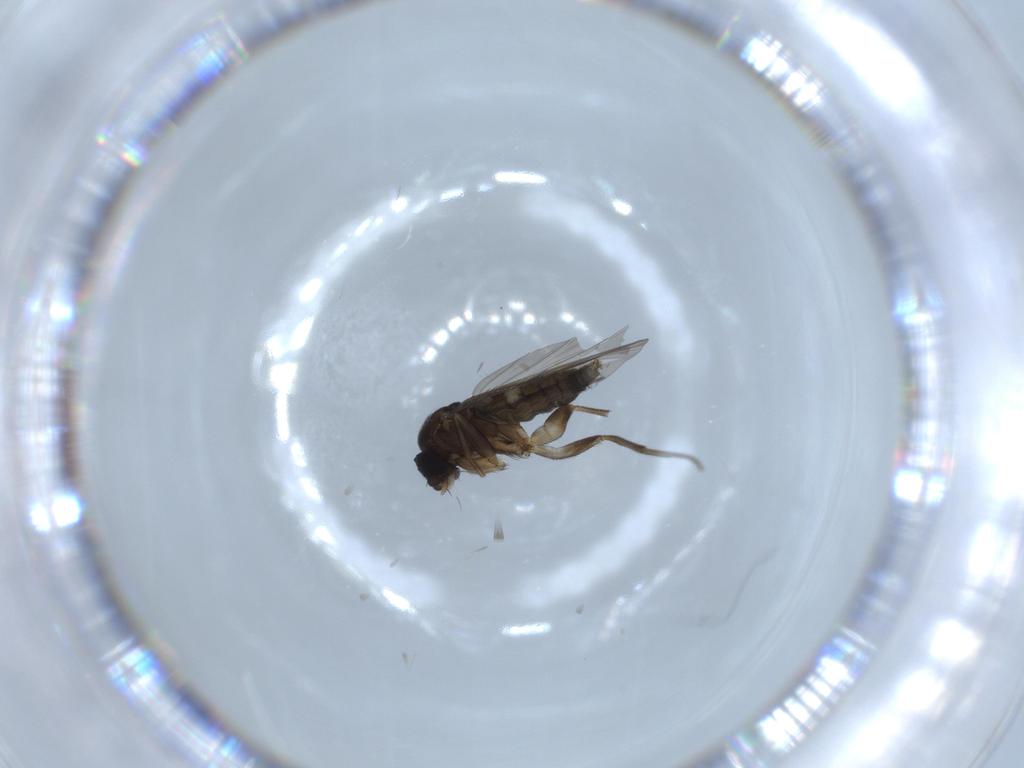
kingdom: Animalia
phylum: Arthropoda
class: Insecta
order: Diptera
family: Phoridae
